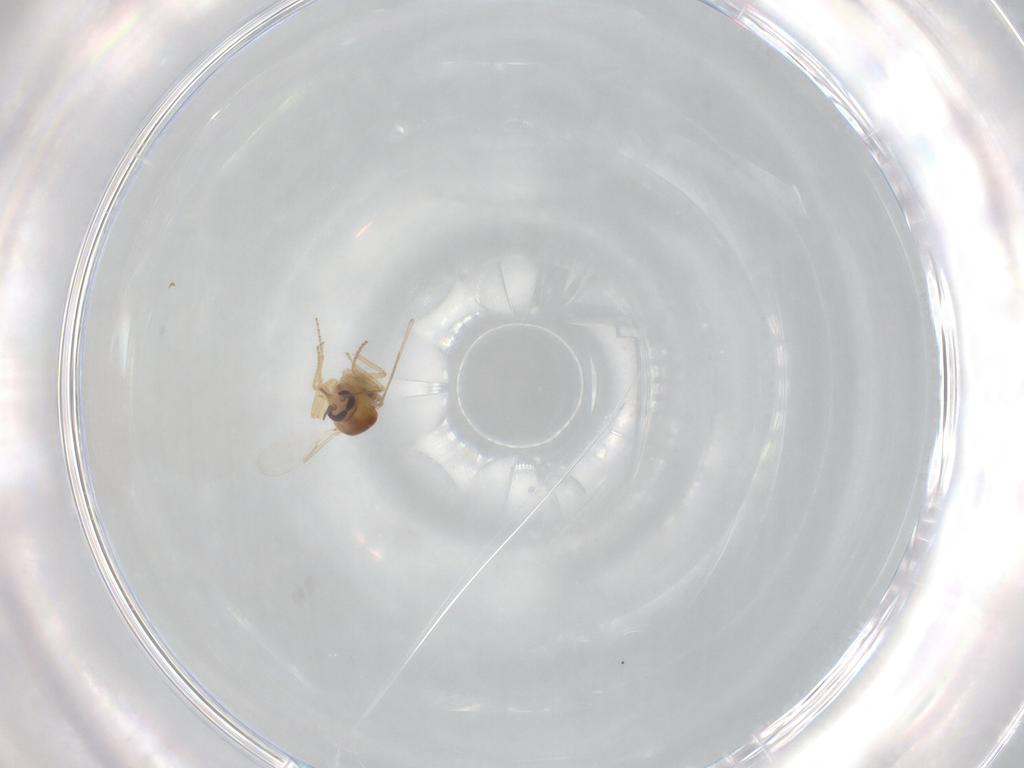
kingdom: Animalia
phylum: Arthropoda
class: Insecta
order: Diptera
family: Ceratopogonidae
